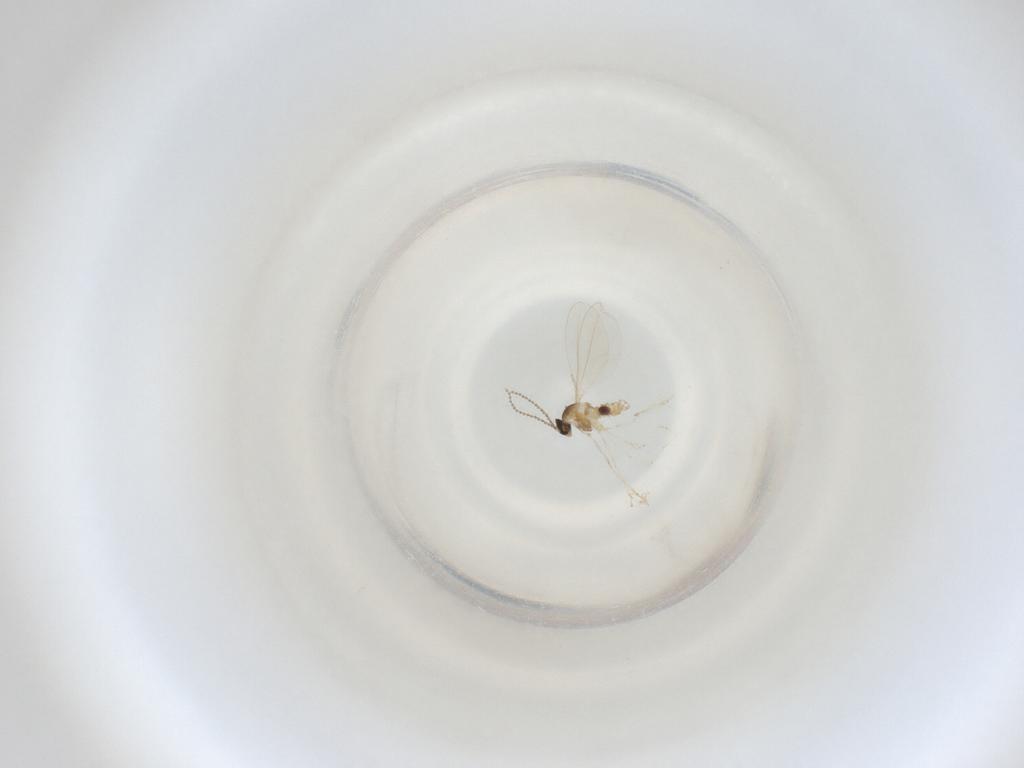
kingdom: Animalia
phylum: Arthropoda
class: Insecta
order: Diptera
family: Cecidomyiidae
